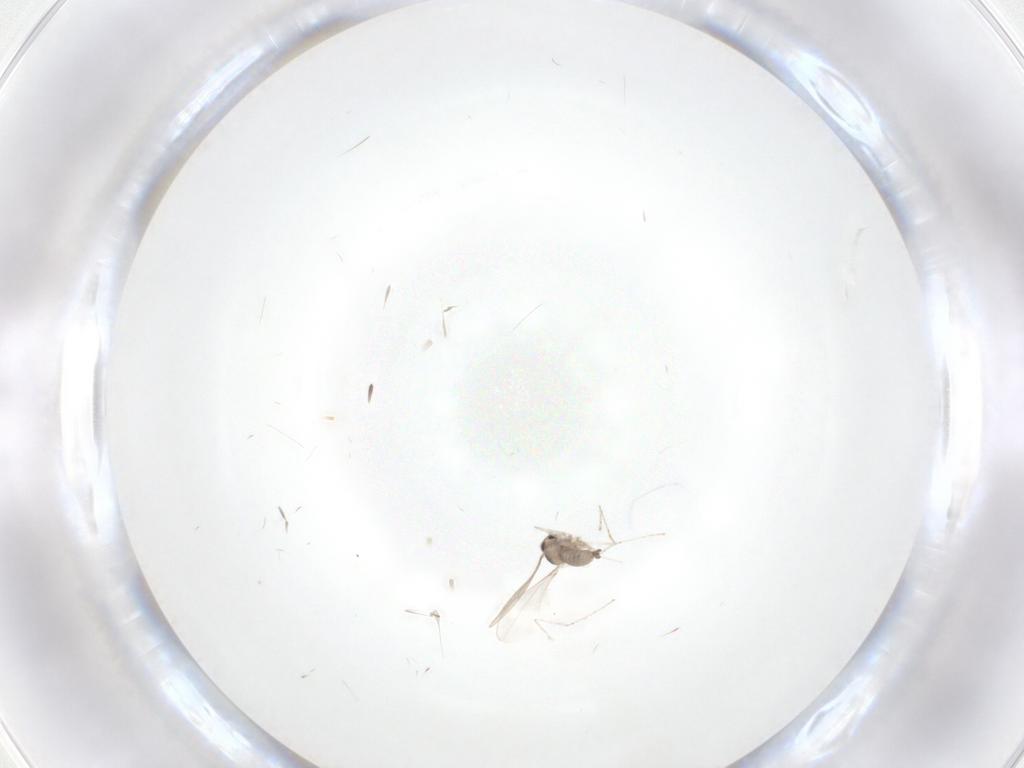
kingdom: Animalia
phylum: Arthropoda
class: Insecta
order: Diptera
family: Cecidomyiidae
